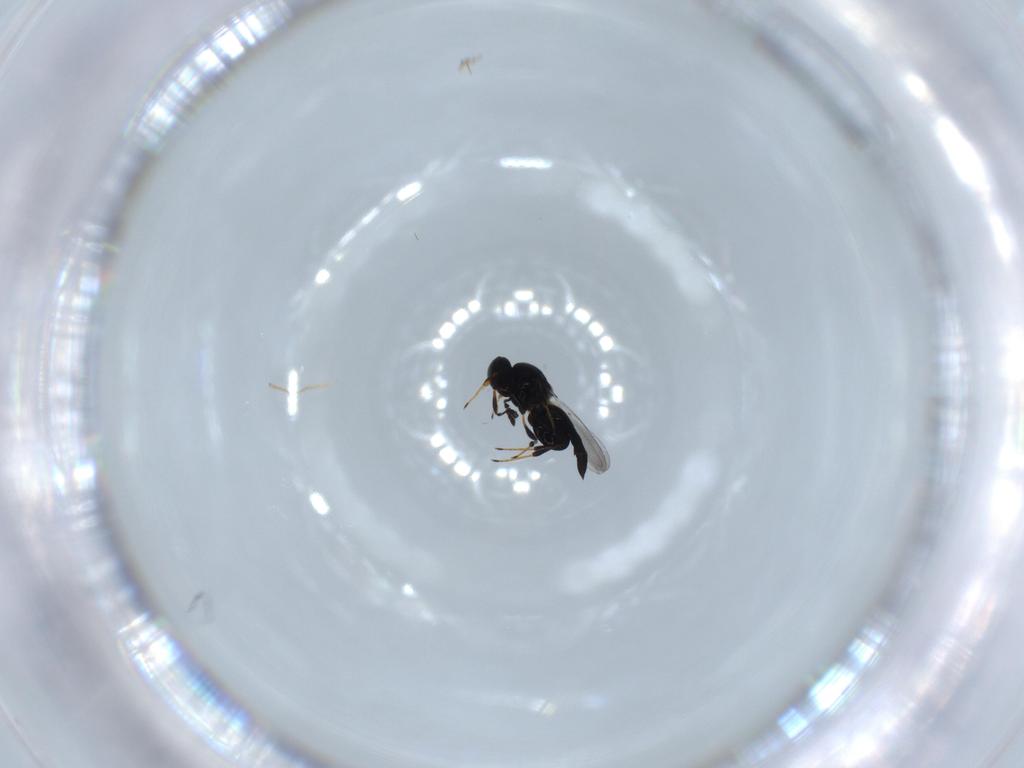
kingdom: Animalia
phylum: Arthropoda
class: Insecta
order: Hymenoptera
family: Platygastridae
